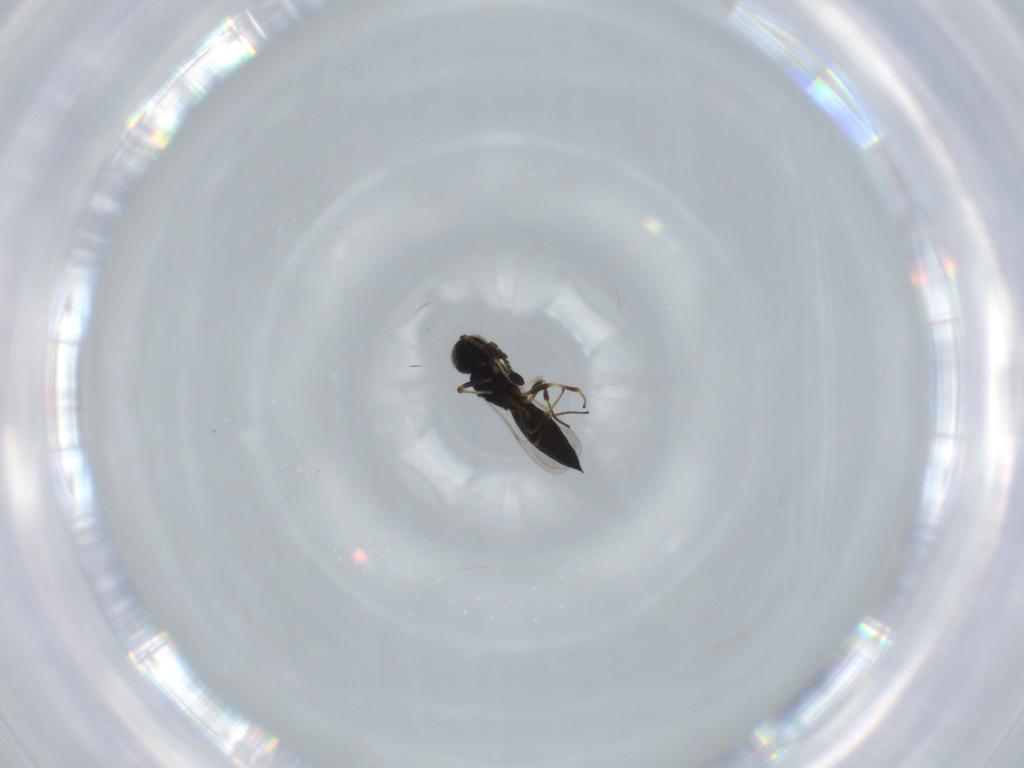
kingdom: Animalia
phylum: Arthropoda
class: Insecta
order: Hymenoptera
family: Scelionidae
